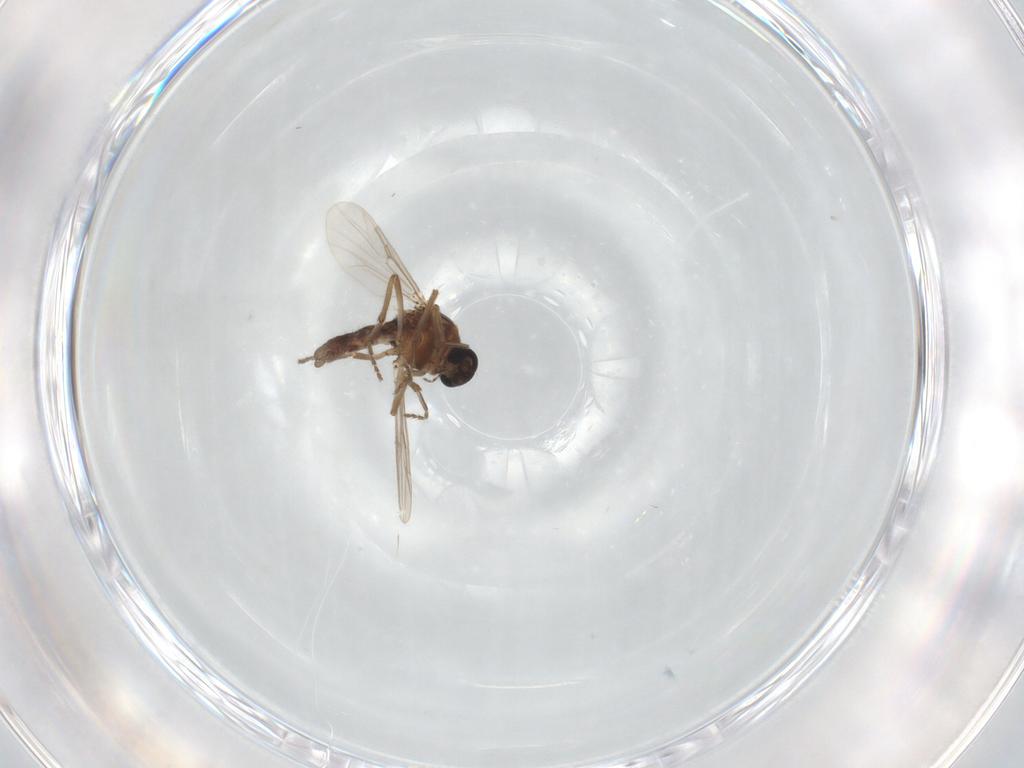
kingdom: Animalia
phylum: Arthropoda
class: Insecta
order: Diptera
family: Ceratopogonidae
